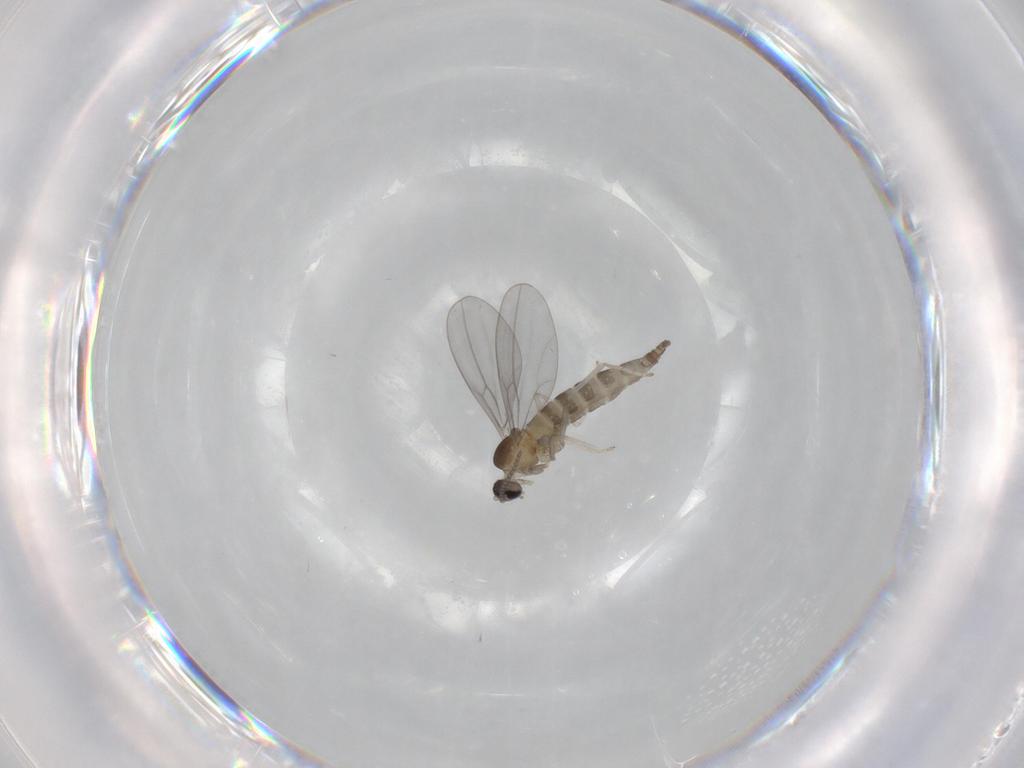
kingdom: Animalia
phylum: Arthropoda
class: Insecta
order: Diptera
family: Cecidomyiidae
